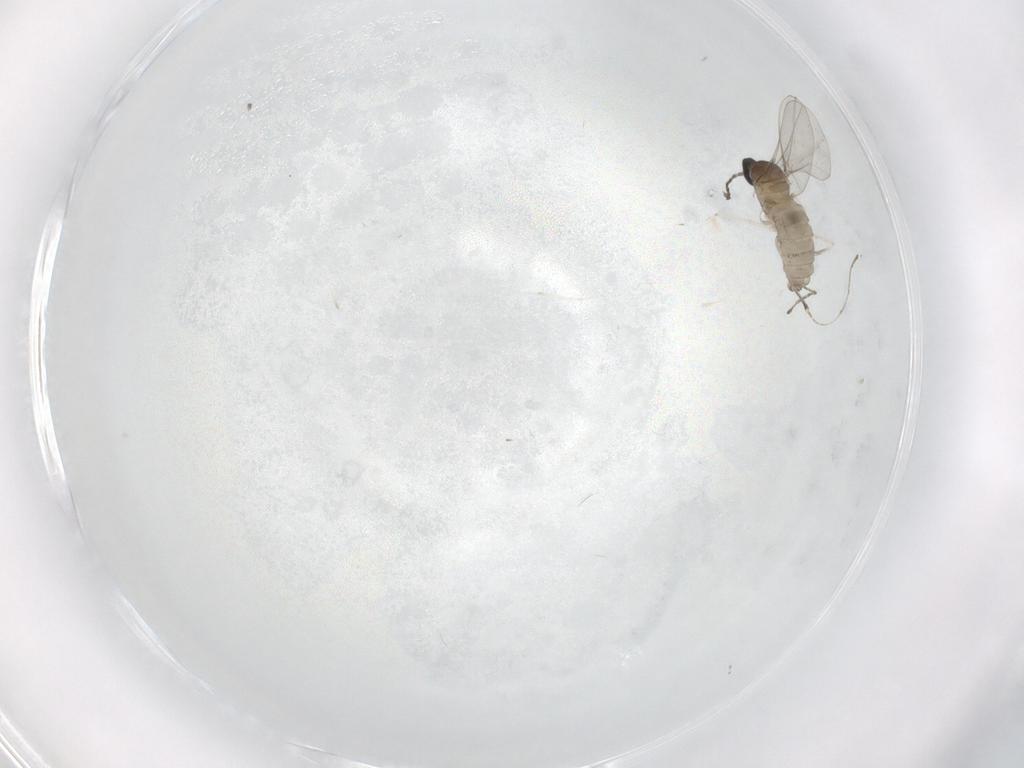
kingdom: Animalia
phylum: Arthropoda
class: Insecta
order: Diptera
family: Cecidomyiidae
